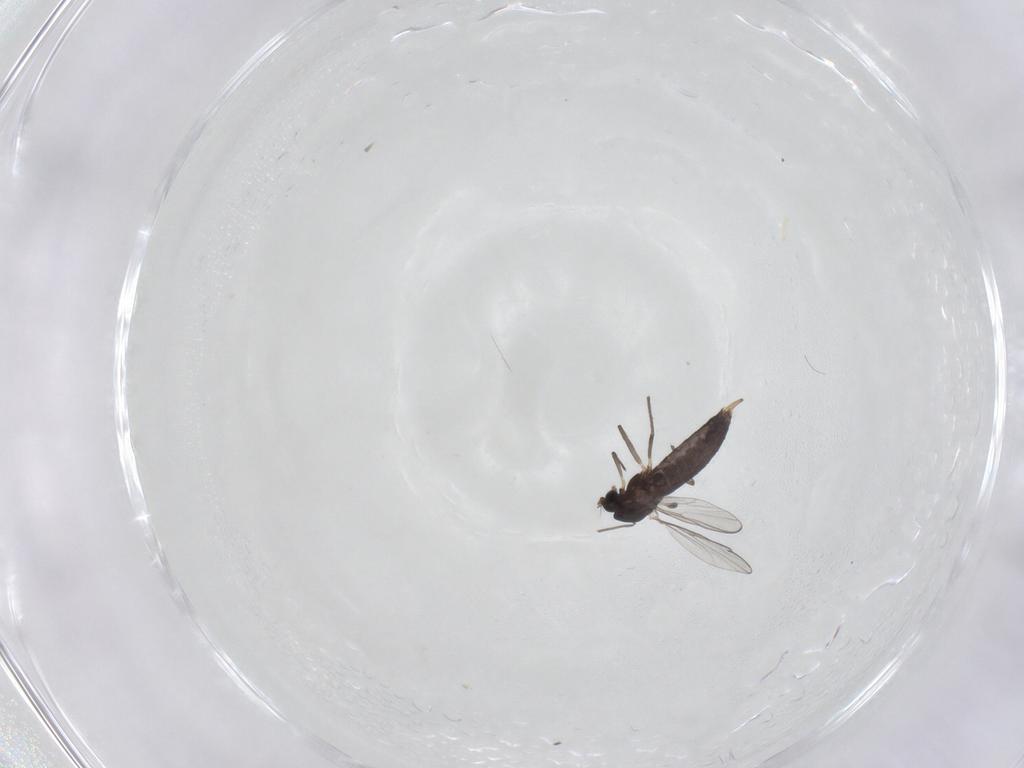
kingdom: Animalia
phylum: Arthropoda
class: Insecta
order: Diptera
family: Chironomidae
